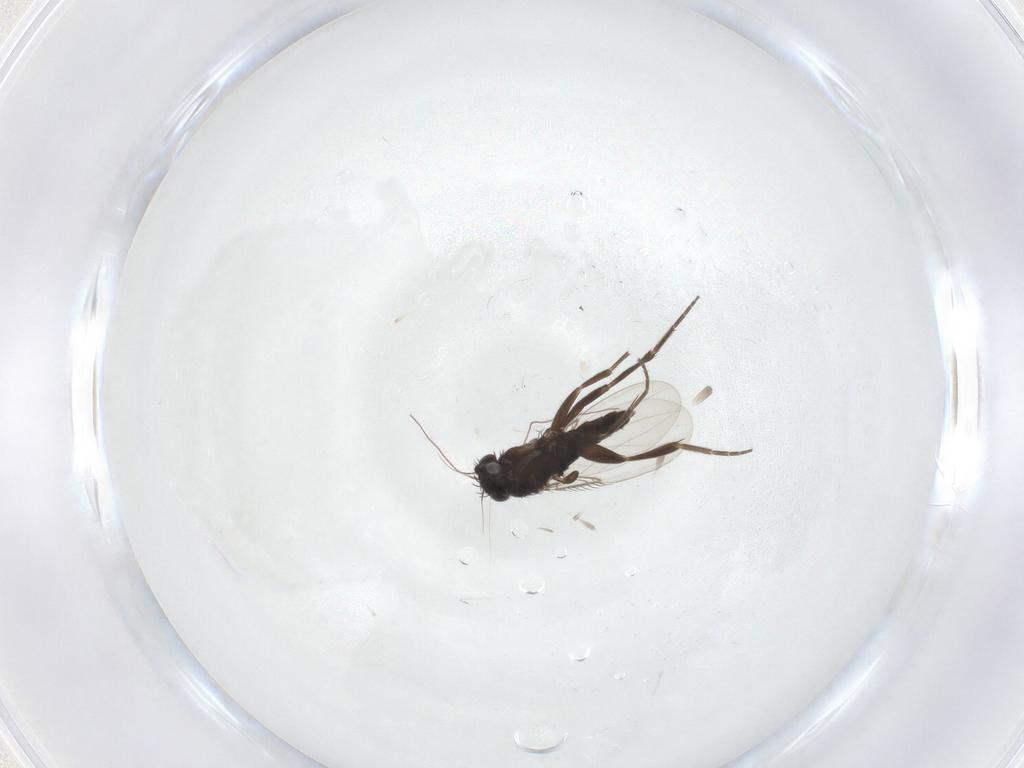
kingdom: Animalia
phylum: Arthropoda
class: Insecta
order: Diptera
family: Phoridae
